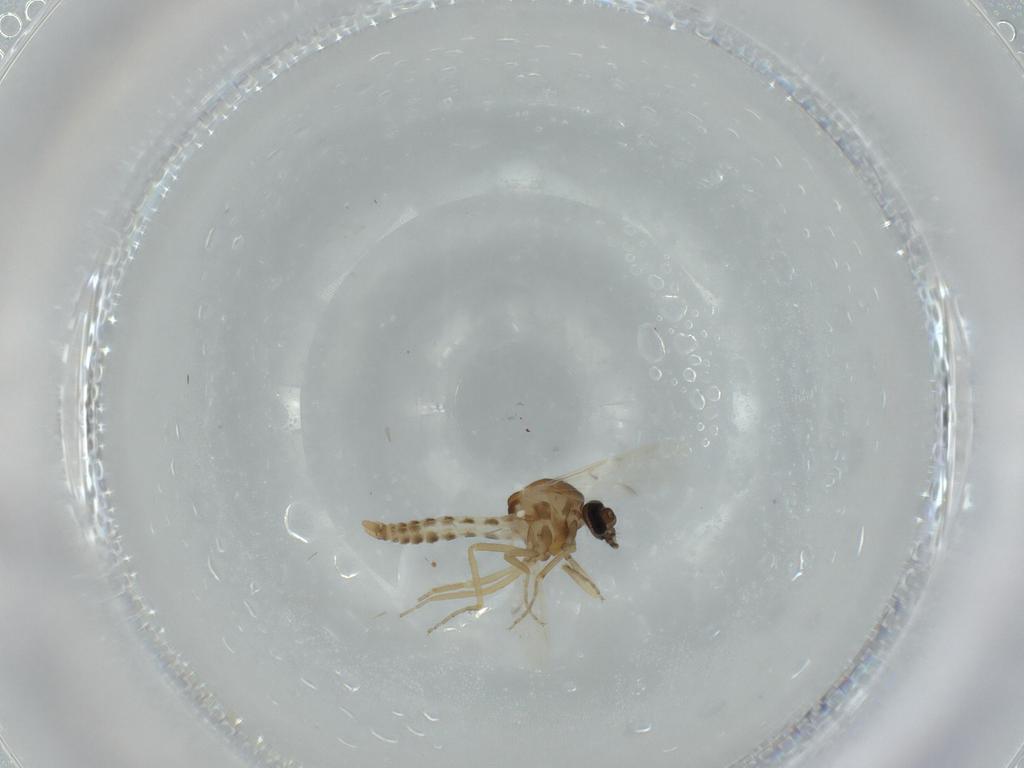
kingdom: Animalia
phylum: Arthropoda
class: Insecta
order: Diptera
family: Ceratopogonidae
